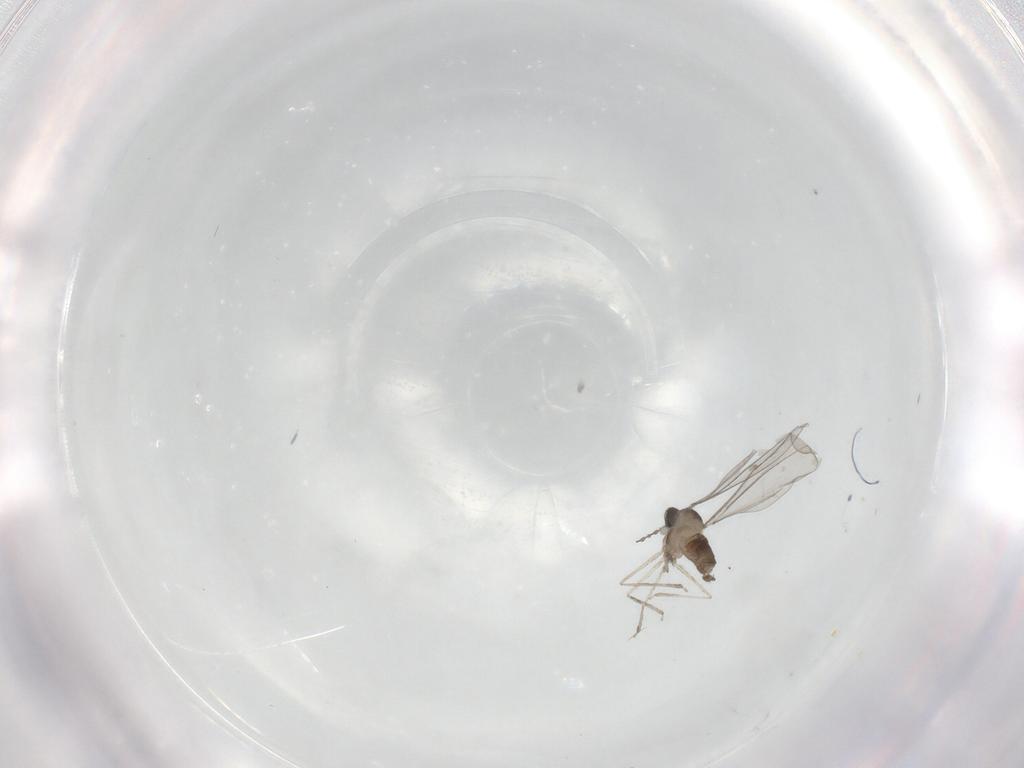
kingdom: Animalia
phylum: Arthropoda
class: Insecta
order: Diptera
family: Cecidomyiidae
